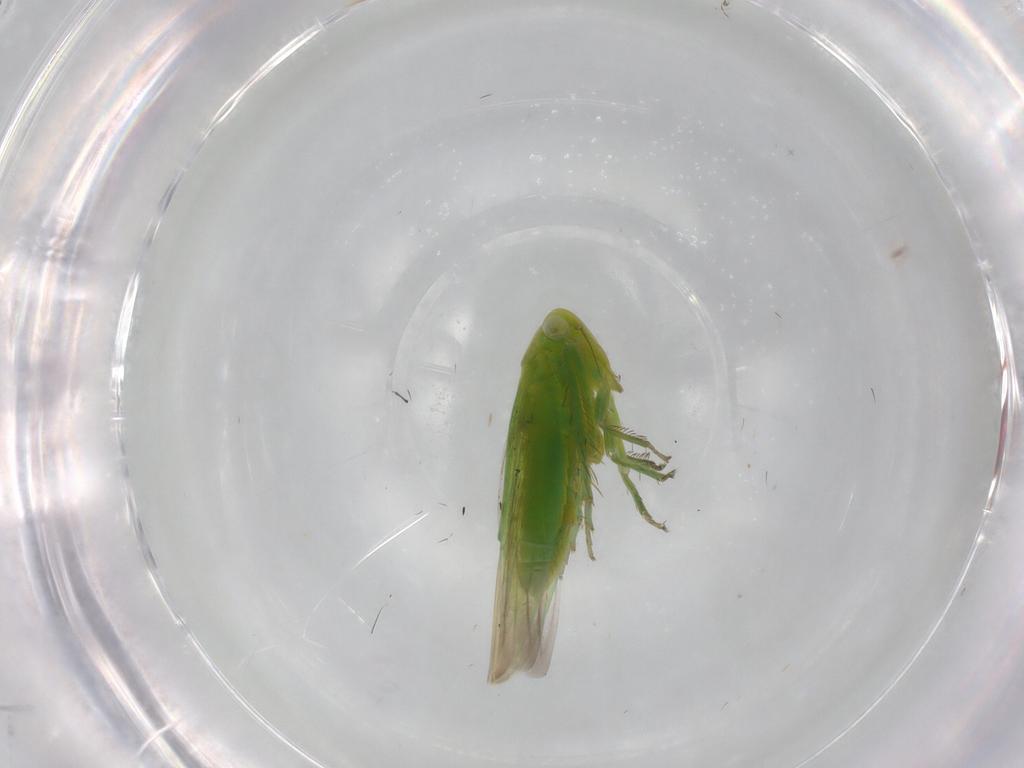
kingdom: Animalia
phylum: Arthropoda
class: Insecta
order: Hemiptera
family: Cicadellidae
